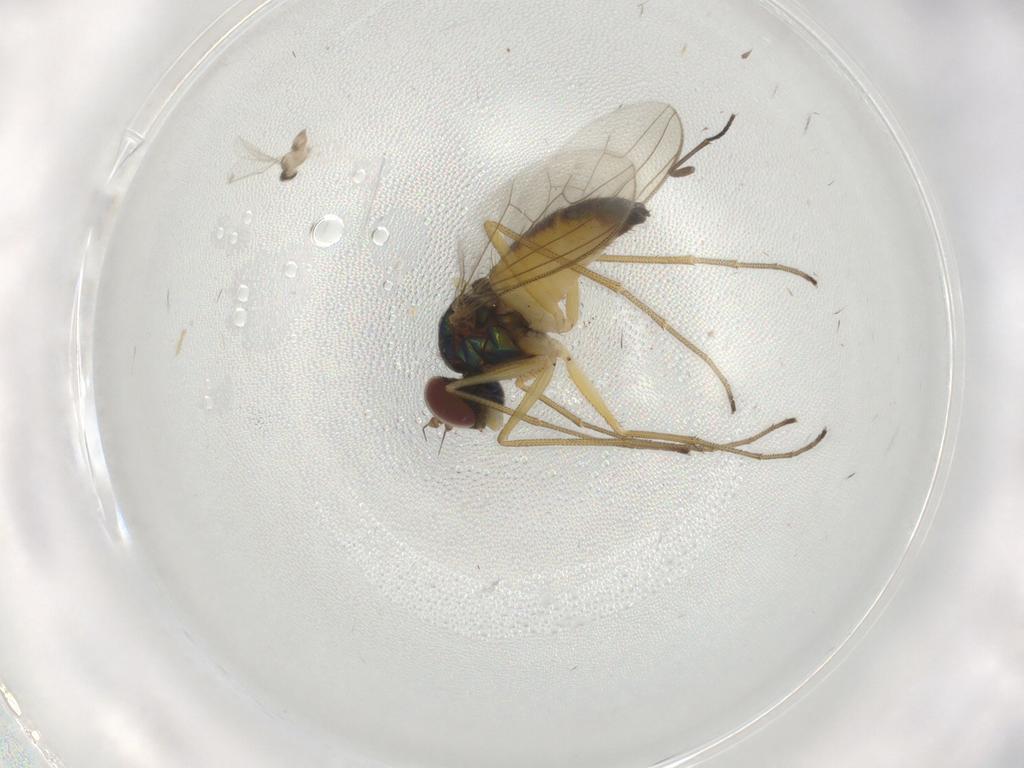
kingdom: Animalia
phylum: Arthropoda
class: Insecta
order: Diptera
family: Cecidomyiidae
